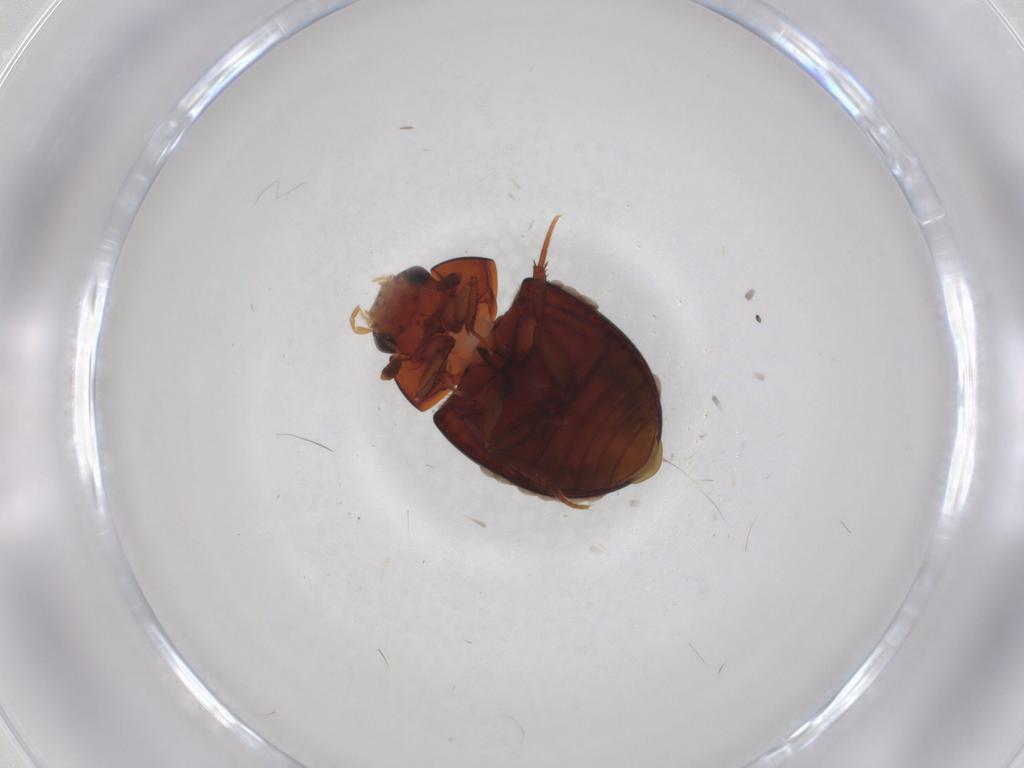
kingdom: Animalia
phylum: Arthropoda
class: Insecta
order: Coleoptera
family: Hydrophilidae
